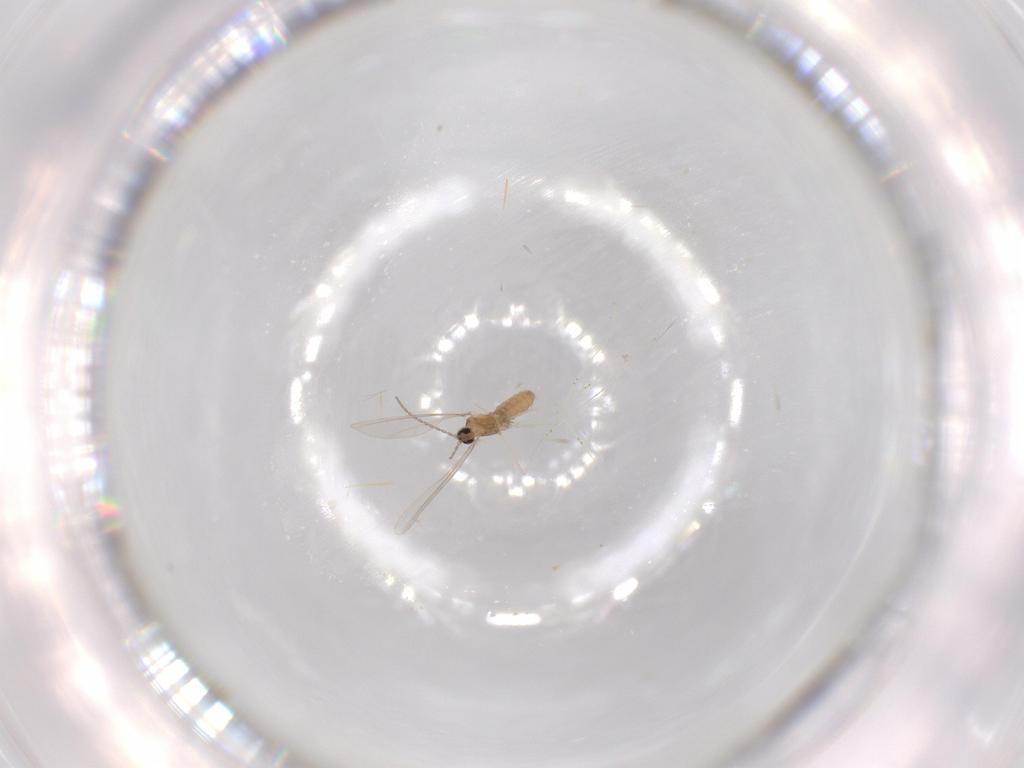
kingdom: Animalia
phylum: Arthropoda
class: Insecta
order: Diptera
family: Cecidomyiidae
